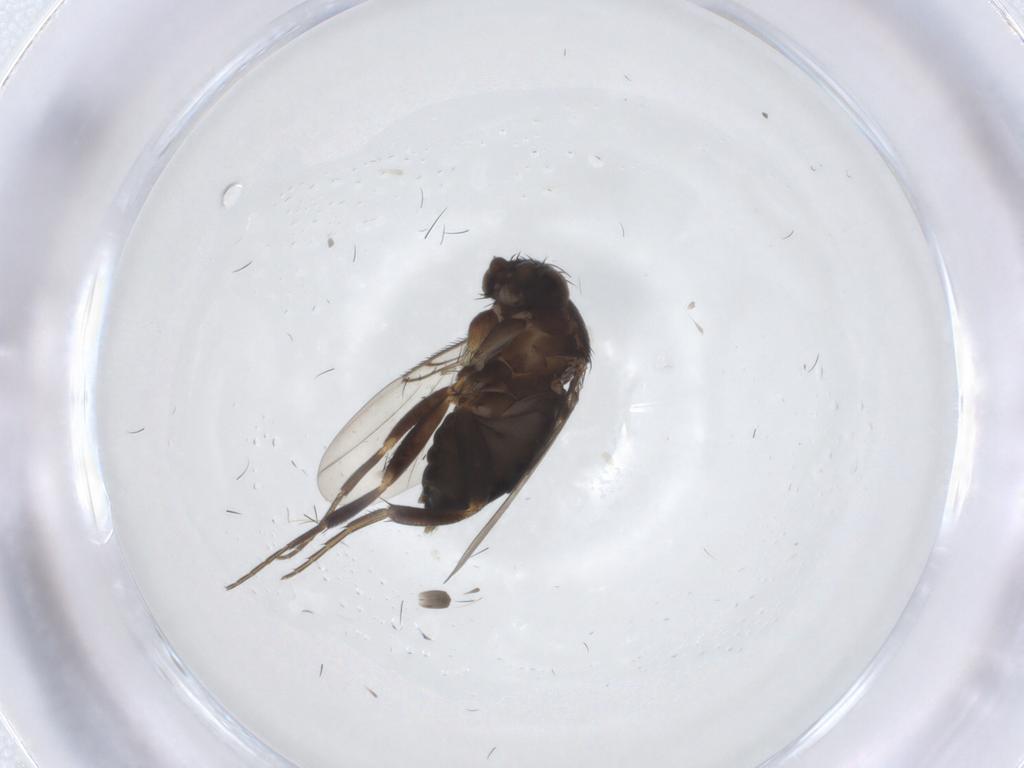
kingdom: Animalia
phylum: Arthropoda
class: Insecta
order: Diptera
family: Phoridae
